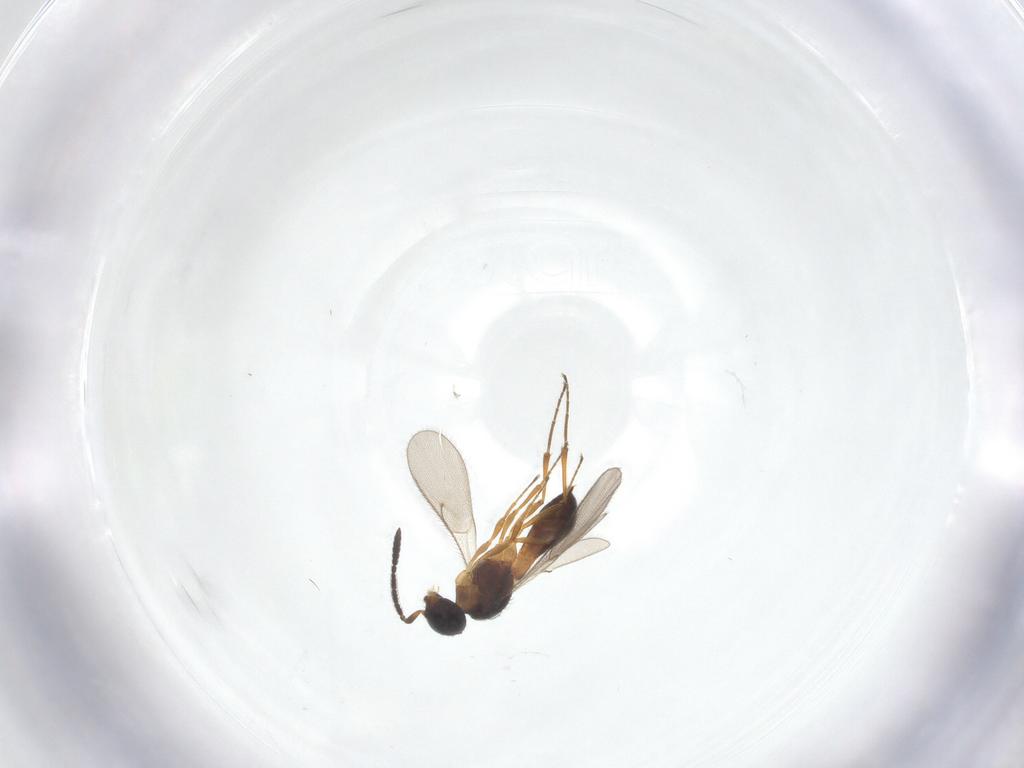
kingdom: Animalia
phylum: Arthropoda
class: Insecta
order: Hymenoptera
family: Scelionidae
